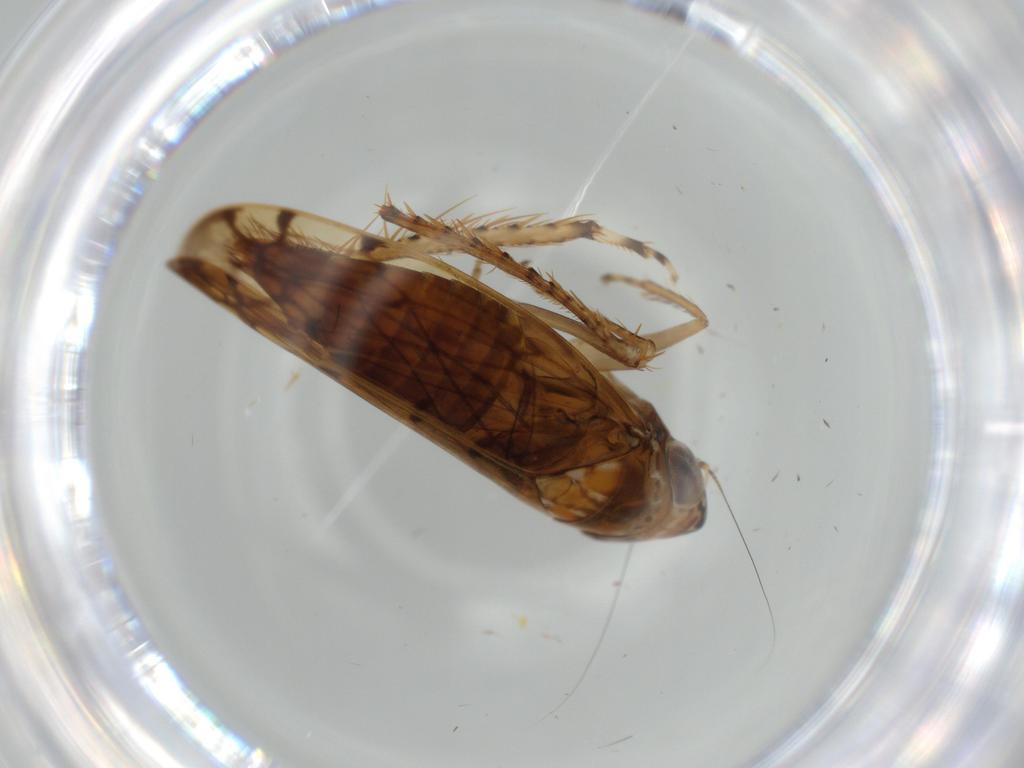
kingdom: Animalia
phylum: Arthropoda
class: Insecta
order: Hemiptera
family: Cicadellidae
